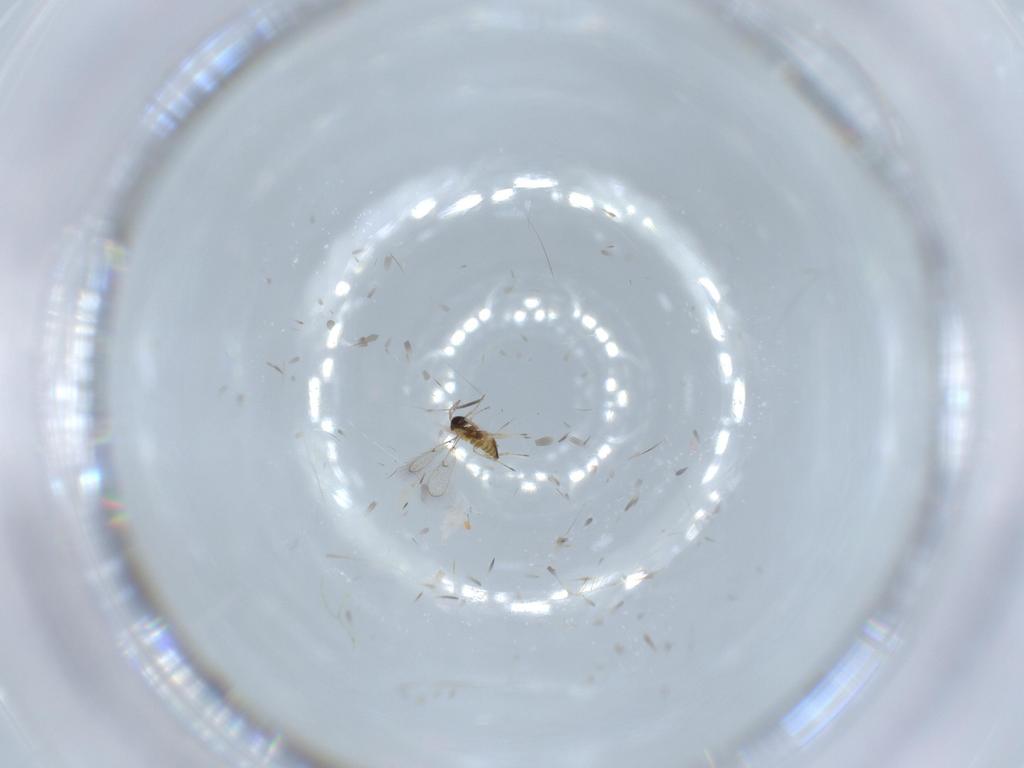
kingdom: Animalia
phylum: Arthropoda
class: Insecta
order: Hymenoptera
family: Trichogrammatidae
